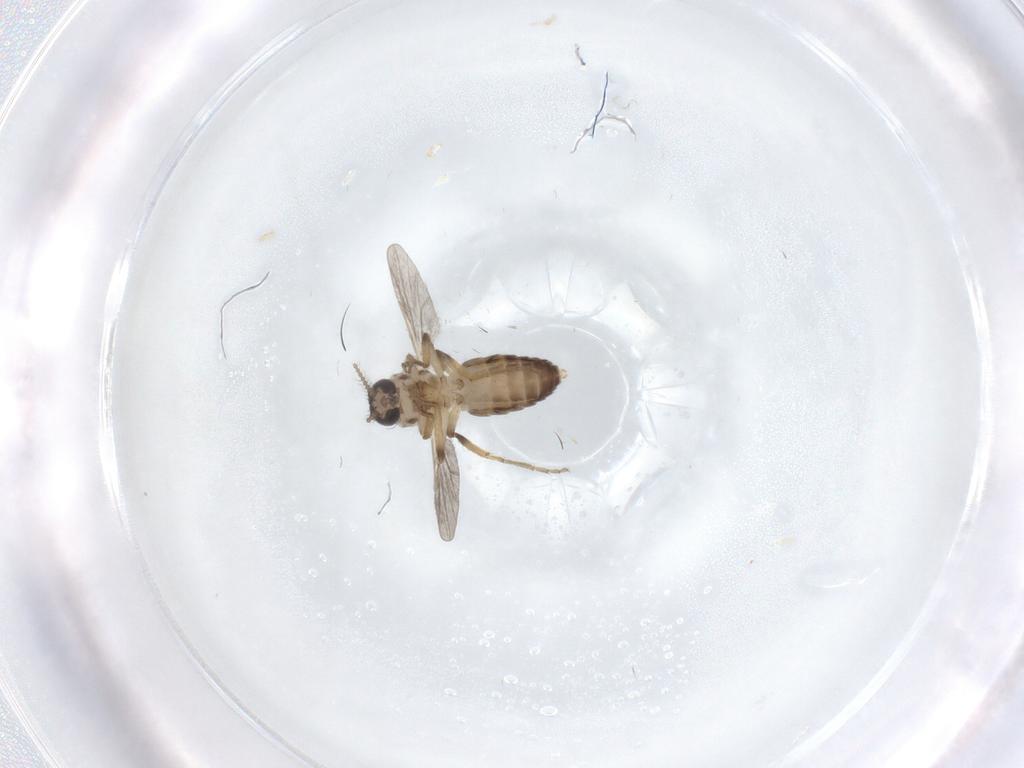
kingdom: Animalia
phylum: Arthropoda
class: Insecta
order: Diptera
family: Ceratopogonidae
